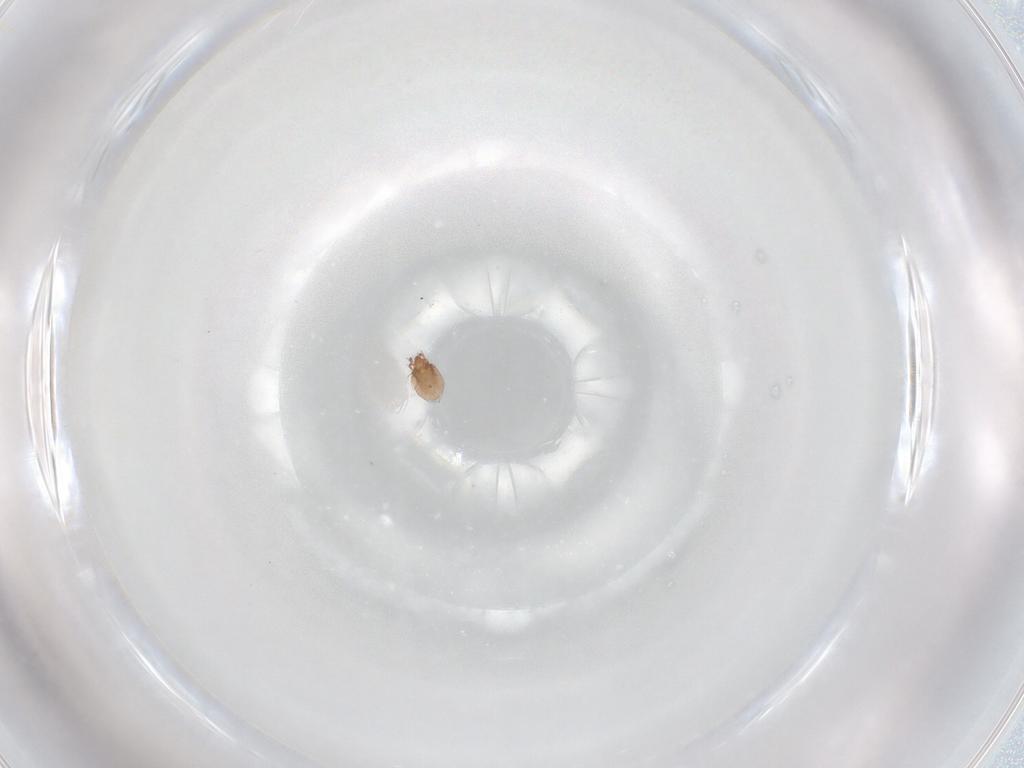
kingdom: Animalia
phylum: Arthropoda
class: Arachnida
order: Sarcoptiformes
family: Ceratozetidae
